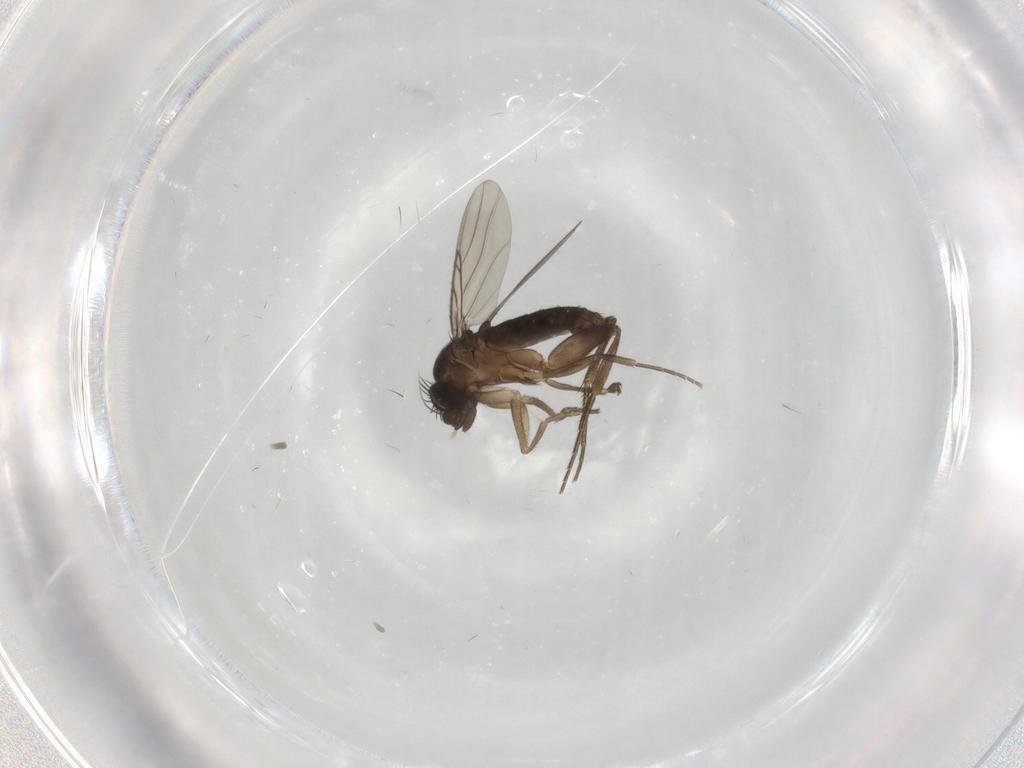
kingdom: Animalia
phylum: Arthropoda
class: Insecta
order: Diptera
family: Phoridae
